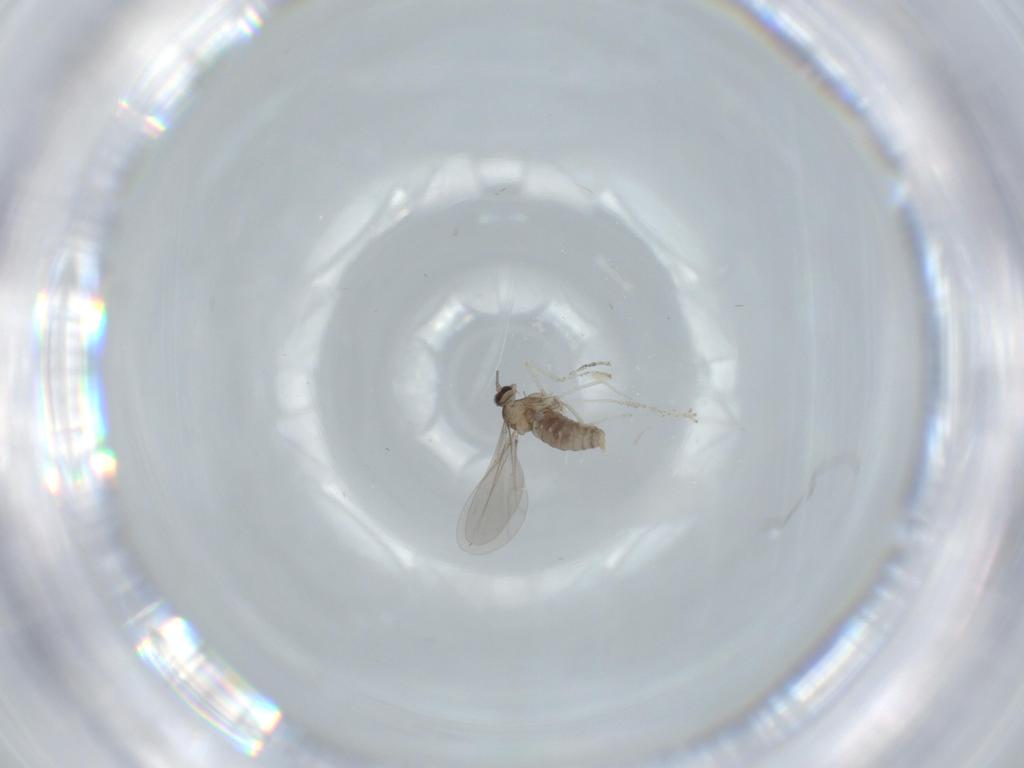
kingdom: Animalia
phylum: Arthropoda
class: Insecta
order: Diptera
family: Cecidomyiidae
